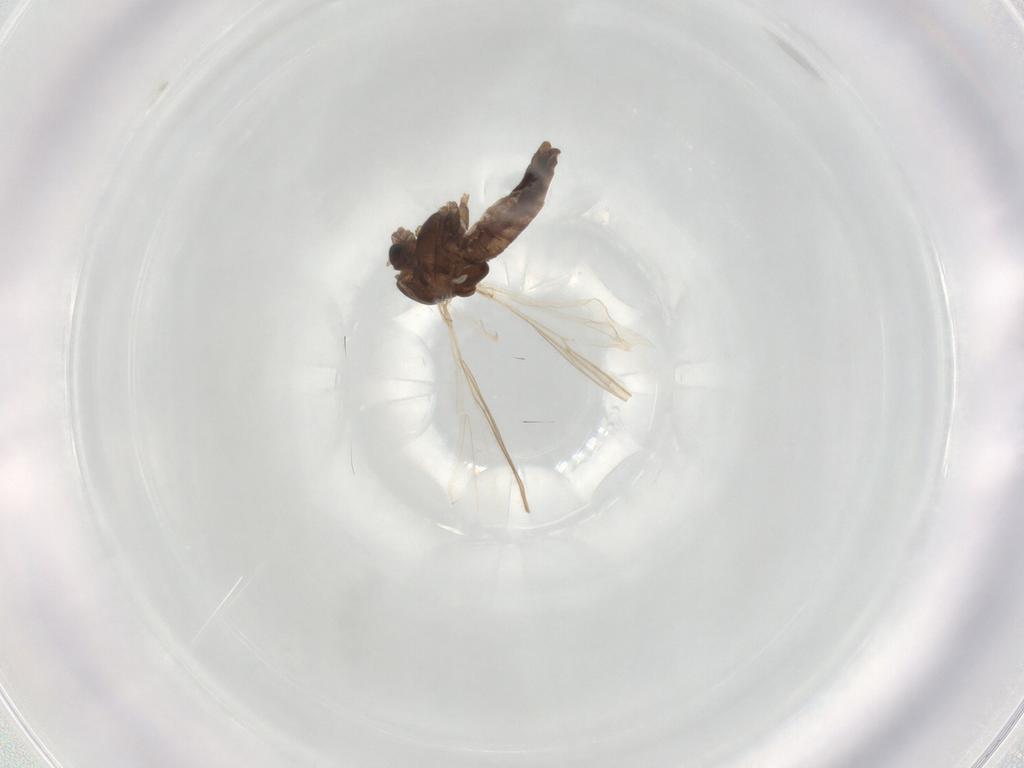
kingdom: Animalia
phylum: Arthropoda
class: Insecta
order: Diptera
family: Chironomidae
